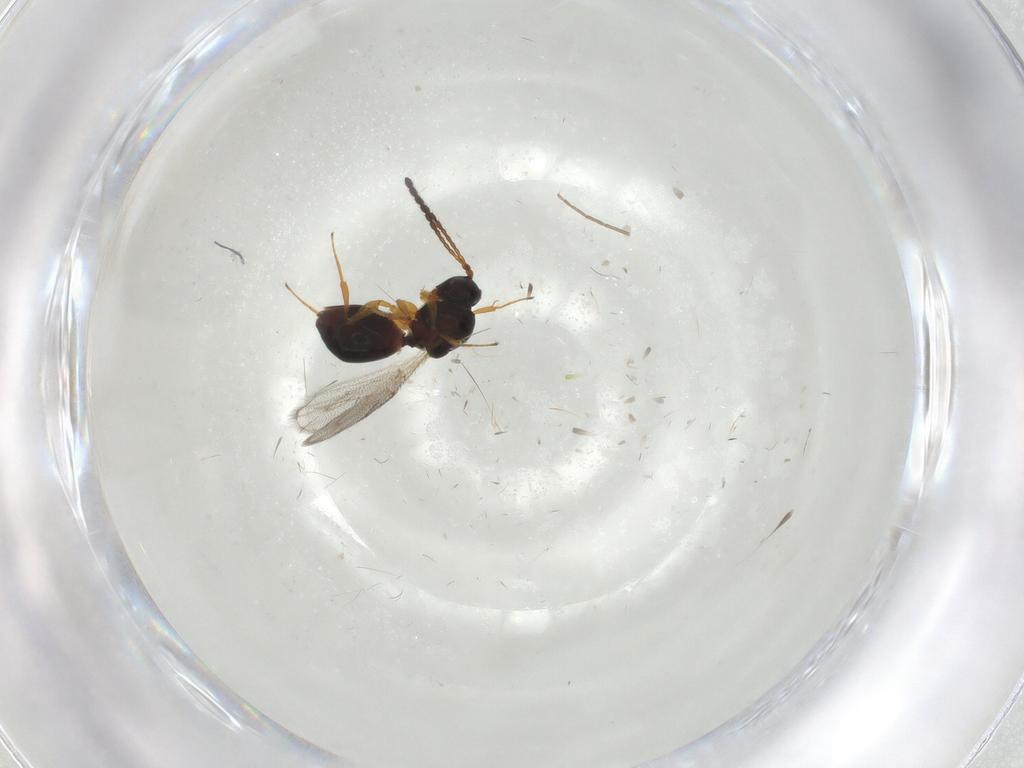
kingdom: Animalia
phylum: Arthropoda
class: Insecta
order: Hymenoptera
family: Figitidae
